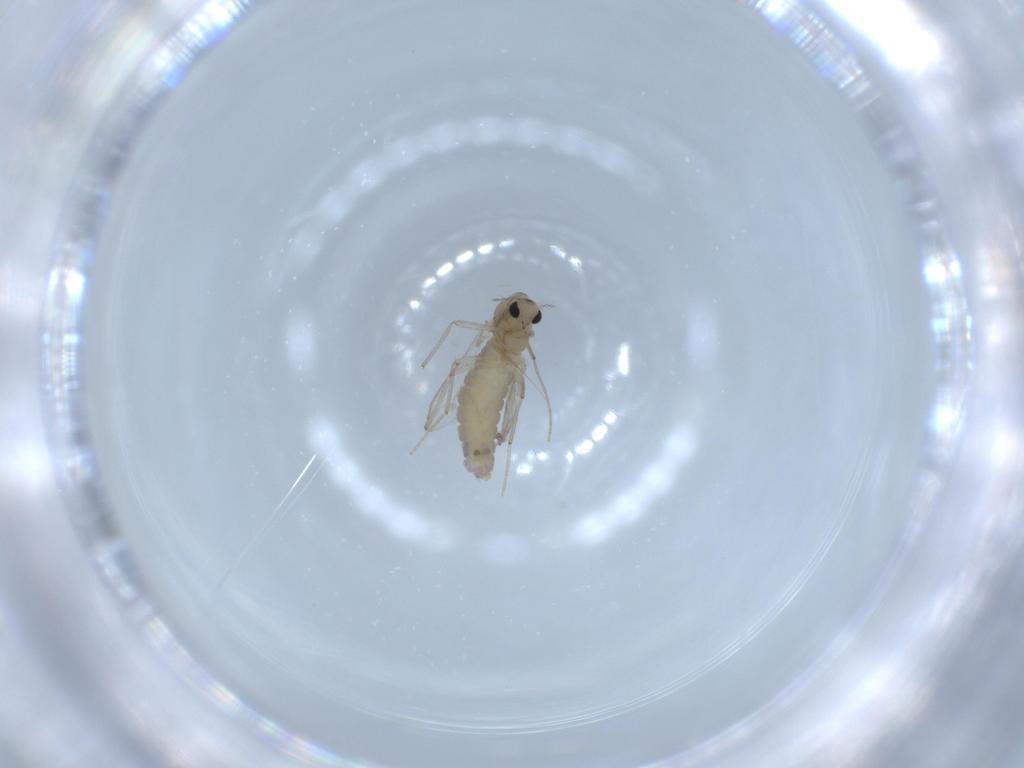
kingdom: Animalia
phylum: Arthropoda
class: Insecta
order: Diptera
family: Chironomidae
